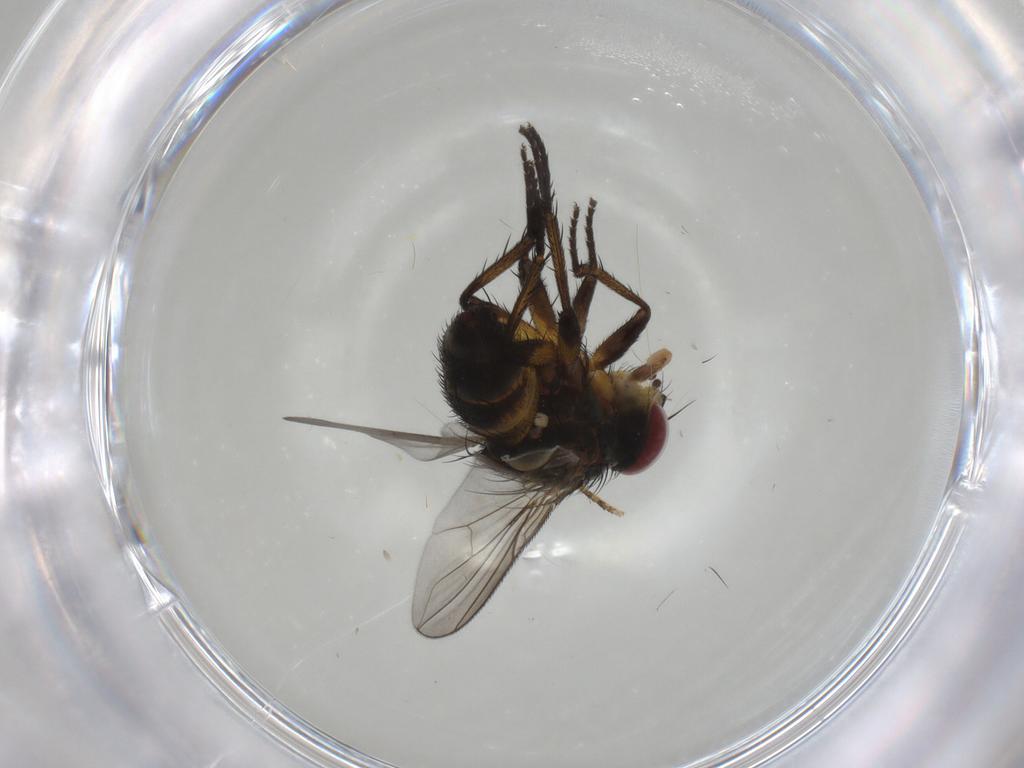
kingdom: Animalia
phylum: Arthropoda
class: Insecta
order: Diptera
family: Tachinidae
